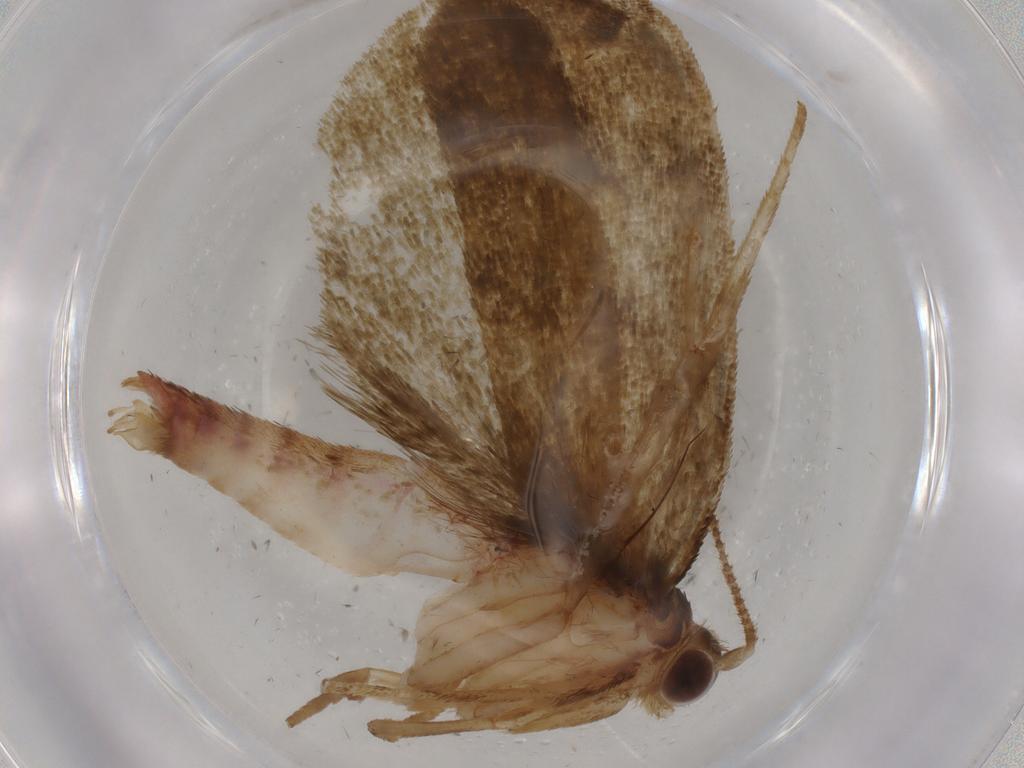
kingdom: Animalia
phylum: Arthropoda
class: Insecta
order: Lepidoptera
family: Geometridae
